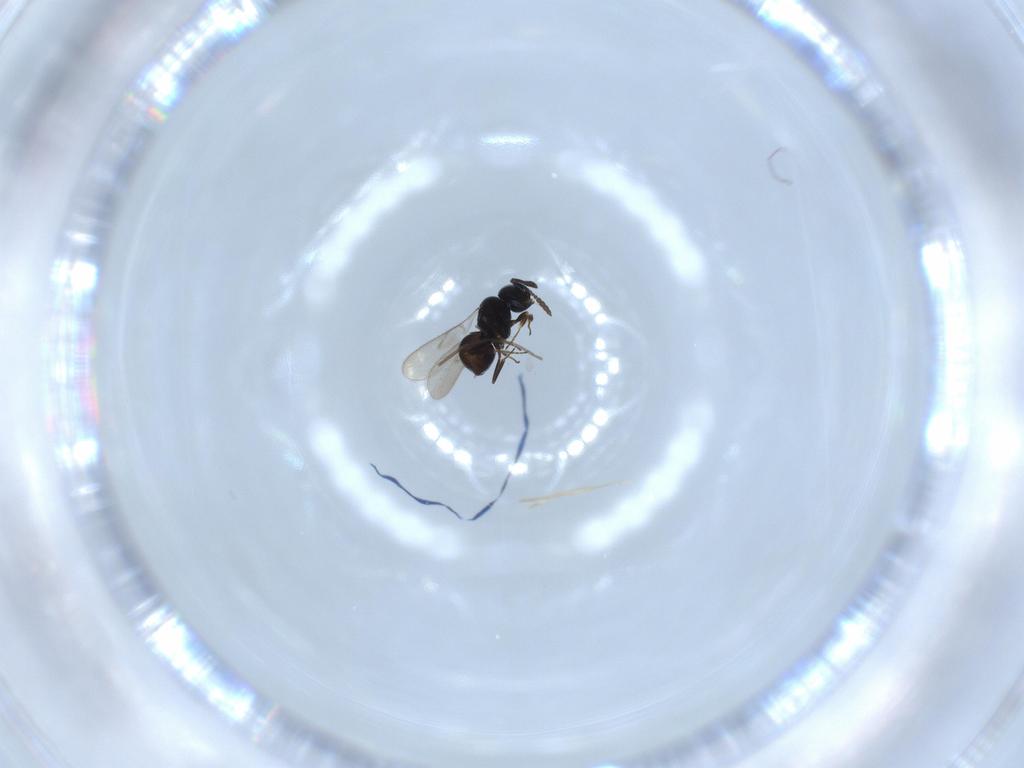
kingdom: Animalia
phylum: Arthropoda
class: Insecta
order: Hymenoptera
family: Scelionidae
